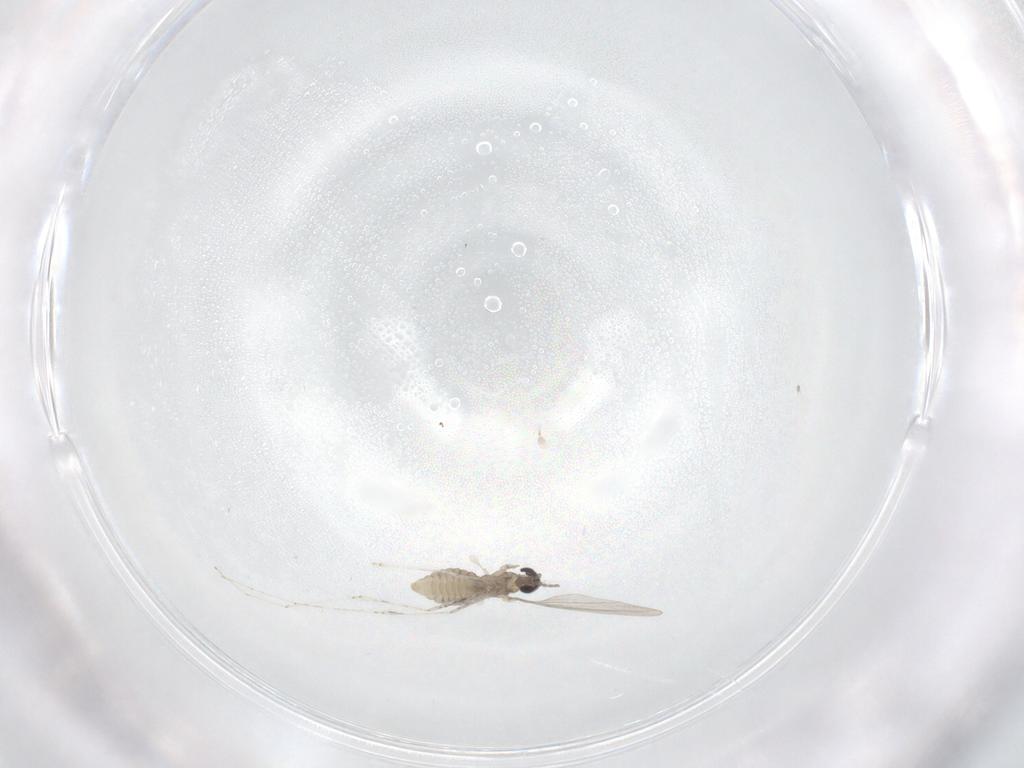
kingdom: Animalia
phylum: Arthropoda
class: Insecta
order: Diptera
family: Cecidomyiidae
